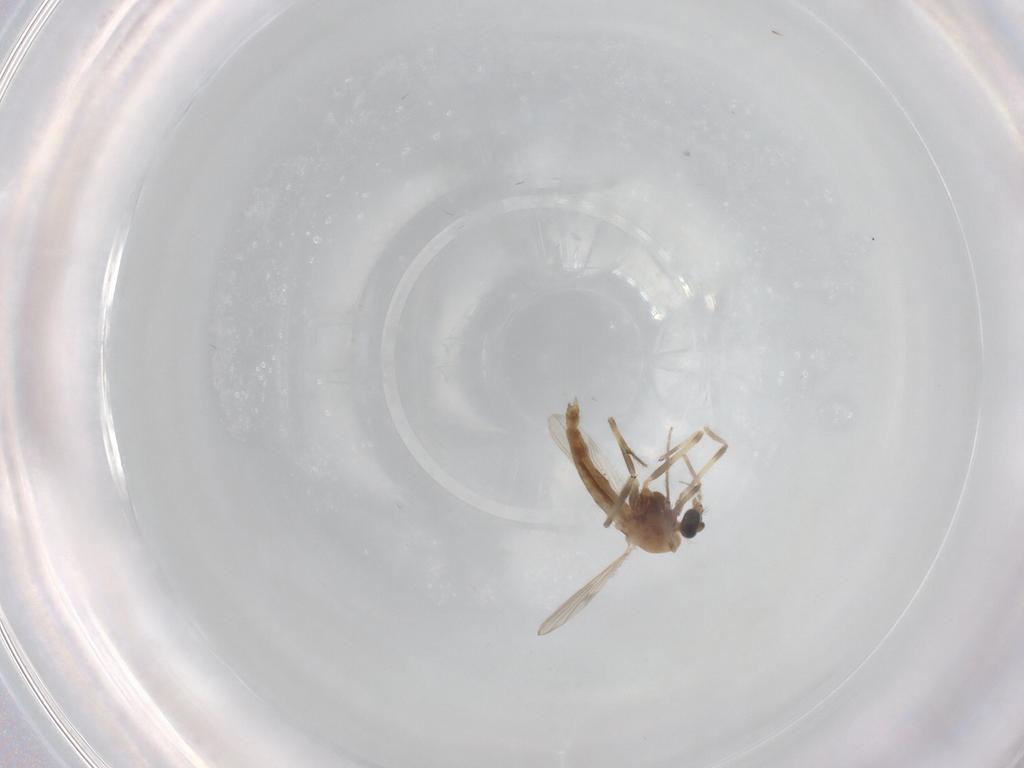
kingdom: Animalia
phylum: Arthropoda
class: Insecta
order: Diptera
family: Chironomidae
